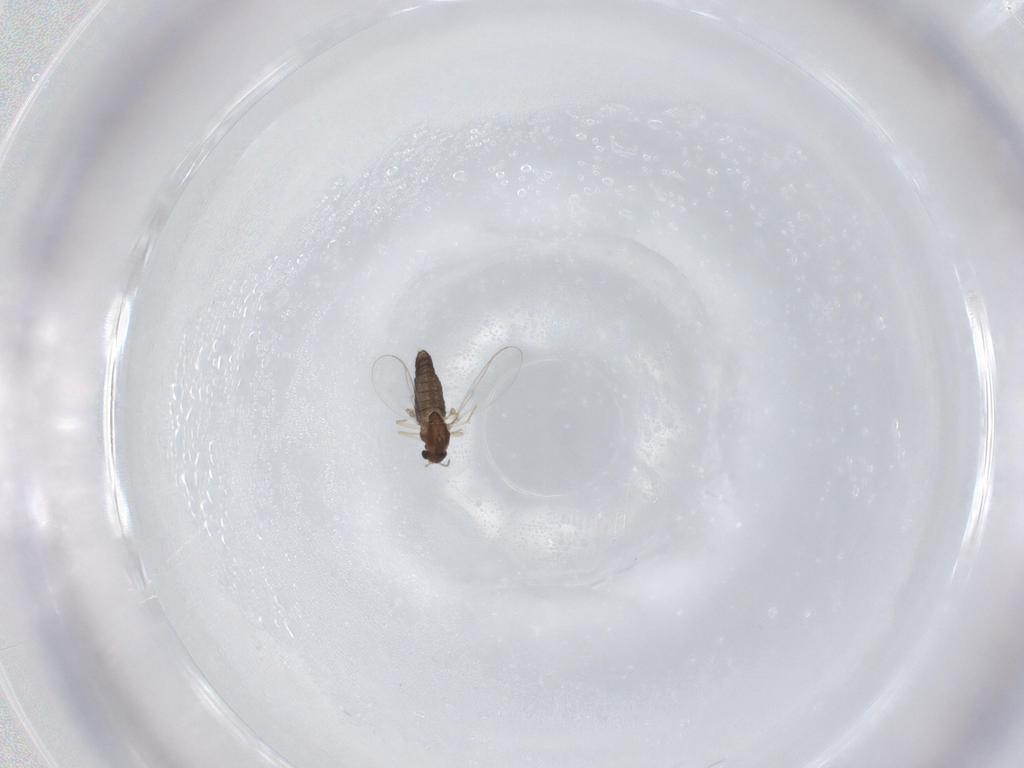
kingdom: Animalia
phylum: Arthropoda
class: Insecta
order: Diptera
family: Chironomidae
